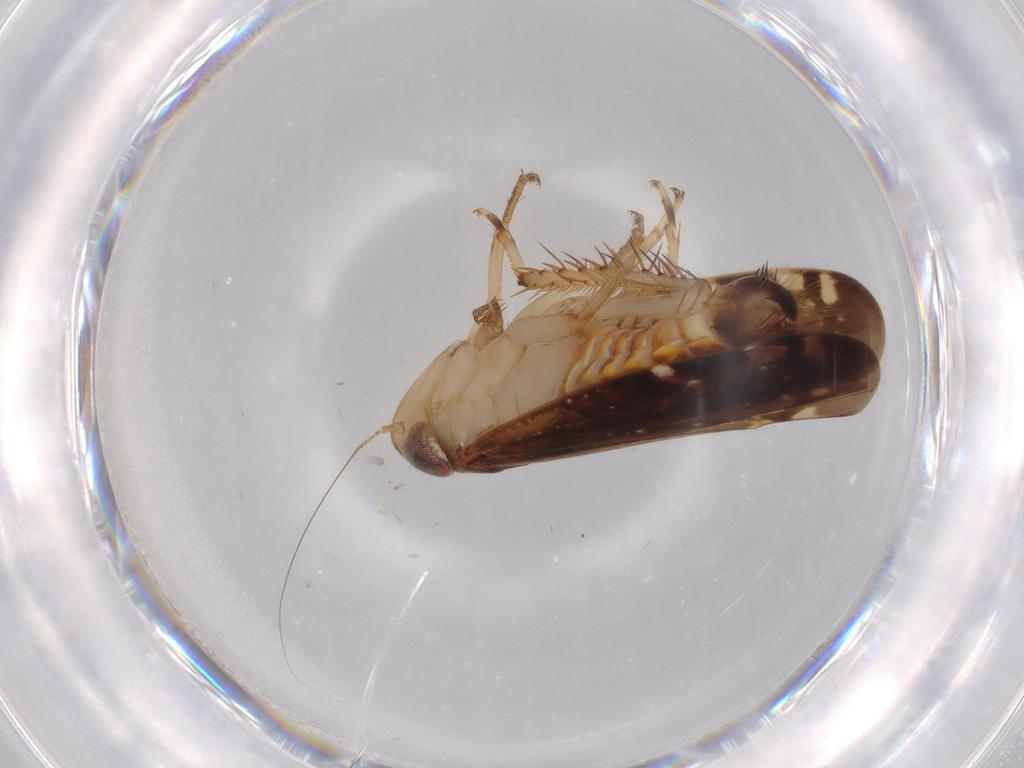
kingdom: Animalia
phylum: Arthropoda
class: Insecta
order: Hemiptera
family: Cicadellidae
